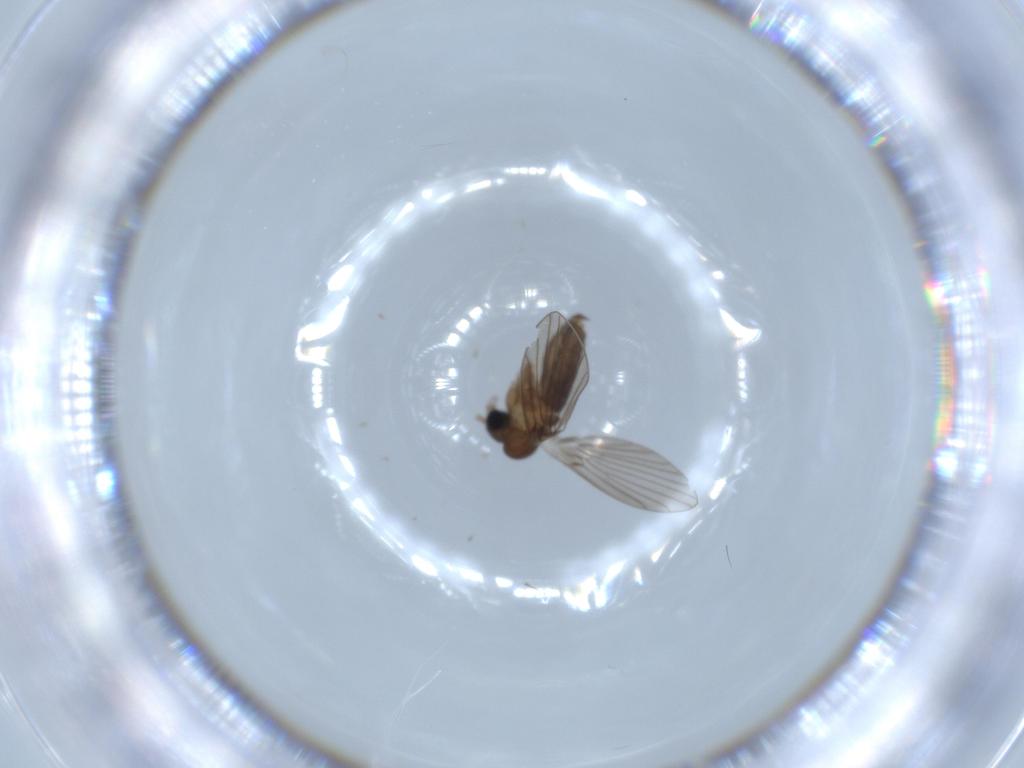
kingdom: Animalia
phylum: Arthropoda
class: Insecta
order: Diptera
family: Psychodidae
